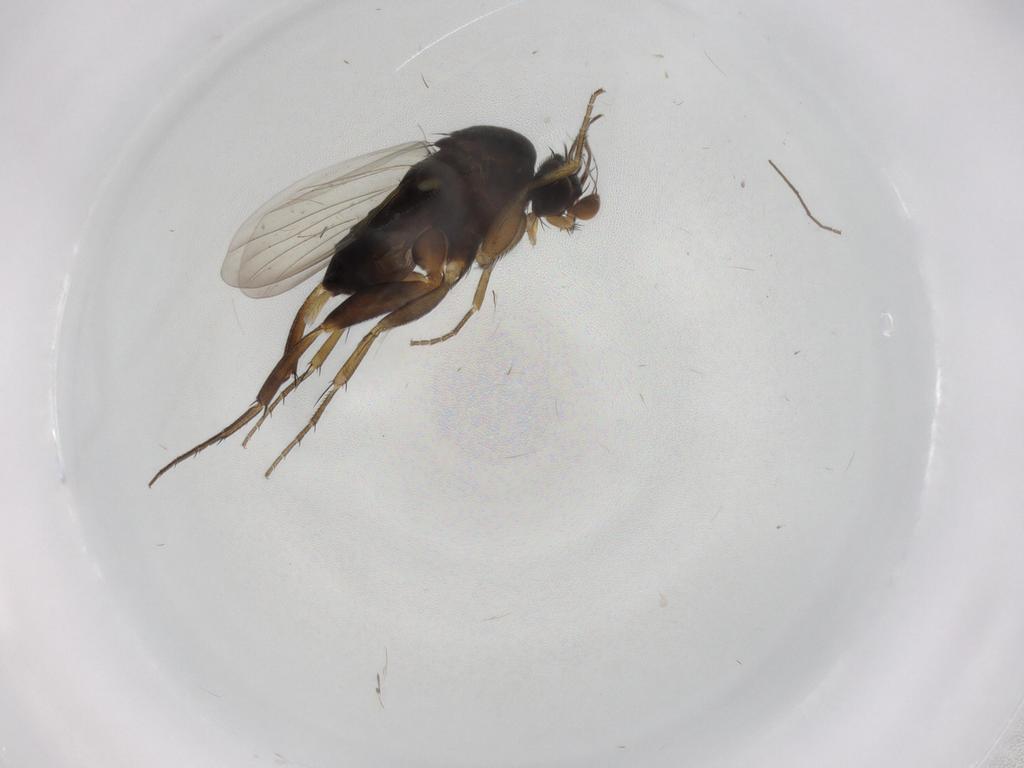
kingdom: Animalia
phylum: Arthropoda
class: Insecta
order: Diptera
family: Phoridae
